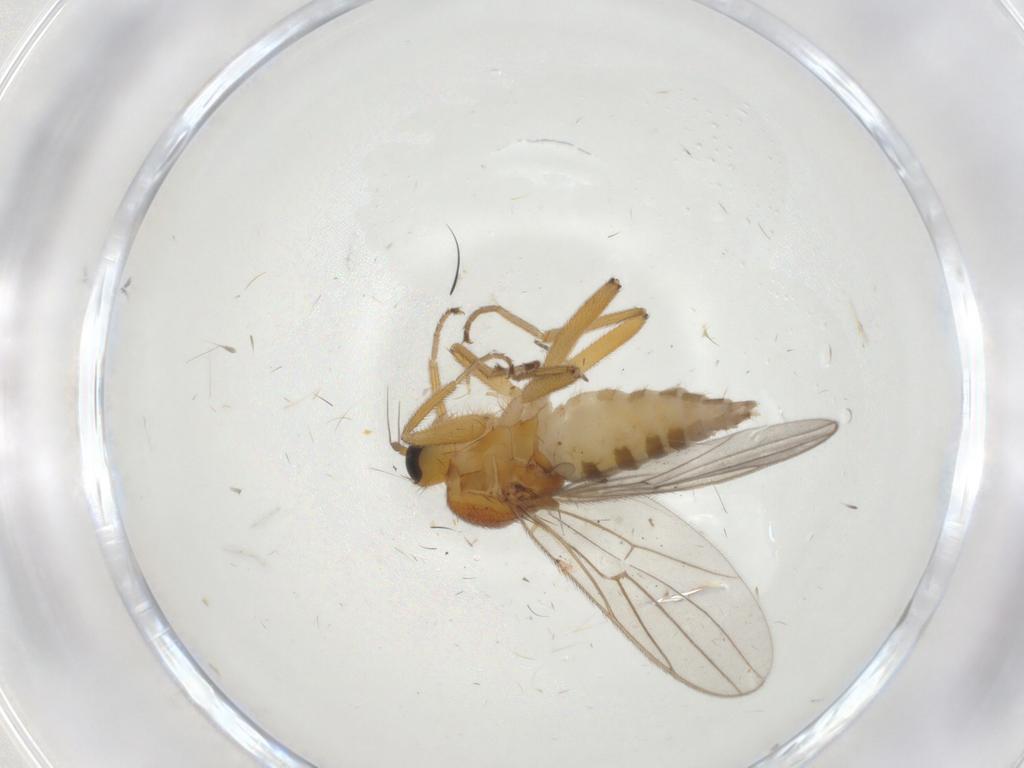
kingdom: Animalia
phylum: Arthropoda
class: Insecta
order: Diptera
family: Hybotidae
